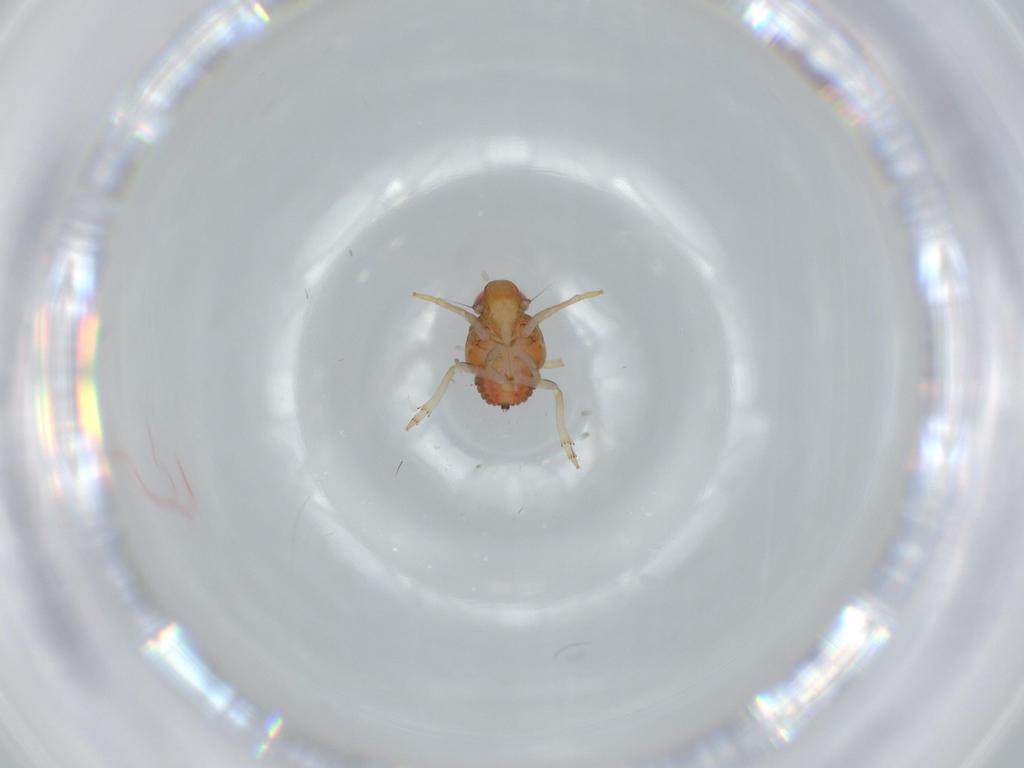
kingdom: Animalia
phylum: Arthropoda
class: Insecta
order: Hemiptera
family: Issidae
